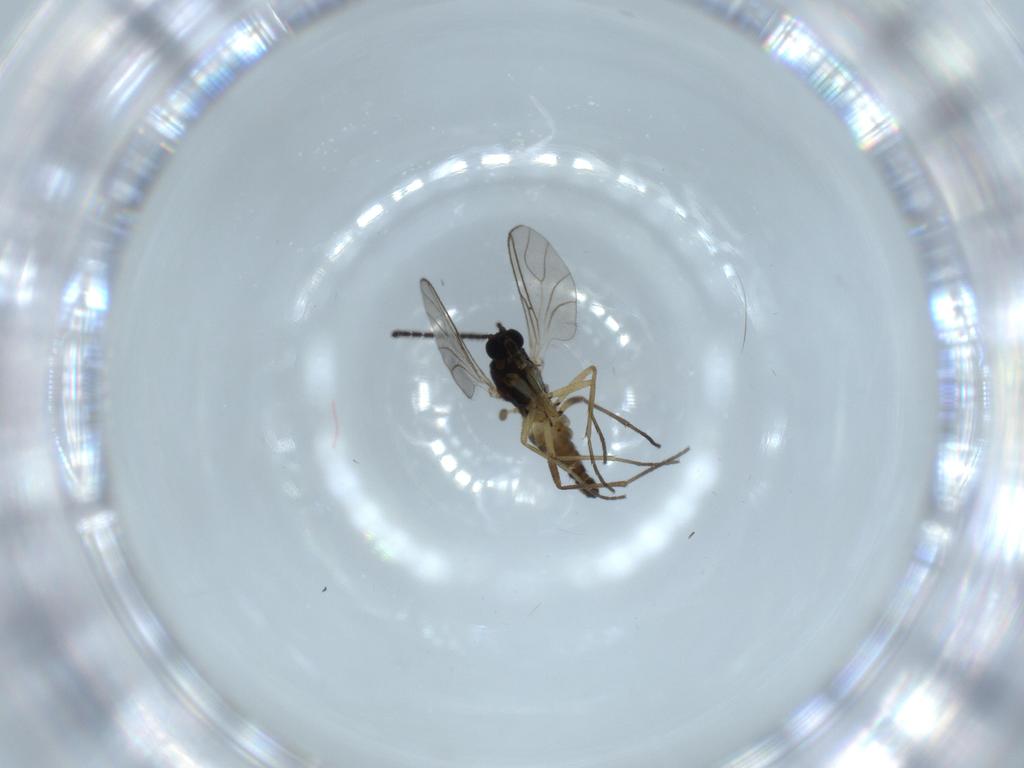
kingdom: Animalia
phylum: Arthropoda
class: Insecta
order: Diptera
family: Sciaridae
